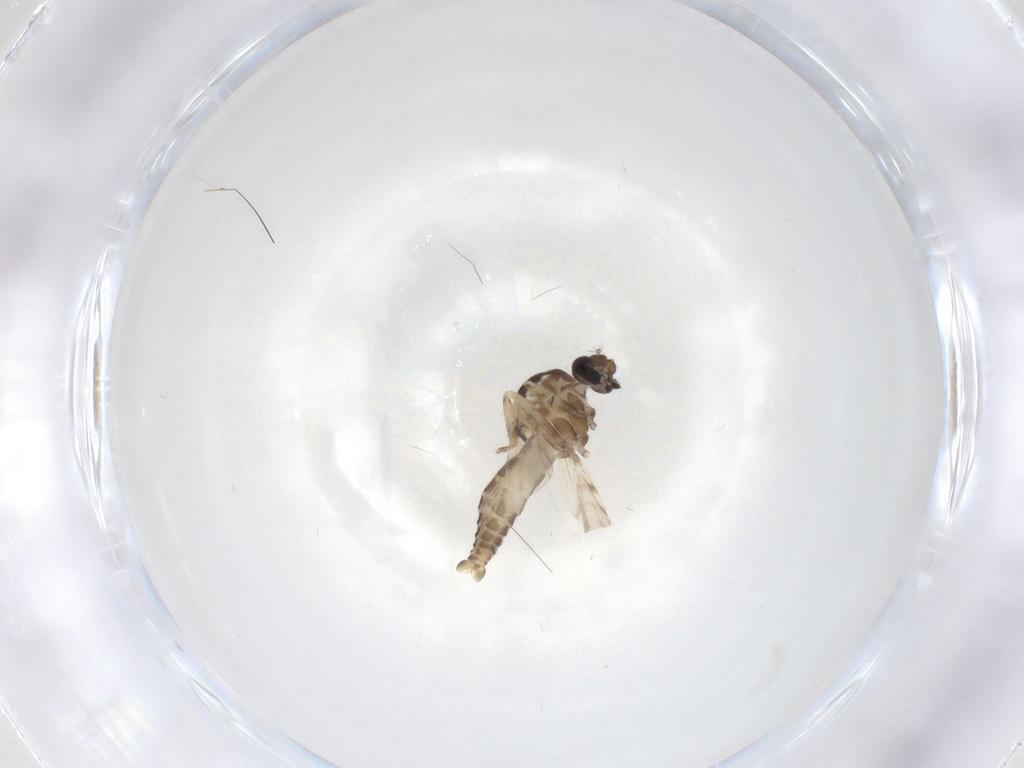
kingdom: Animalia
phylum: Arthropoda
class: Insecta
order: Diptera
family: Ceratopogonidae
